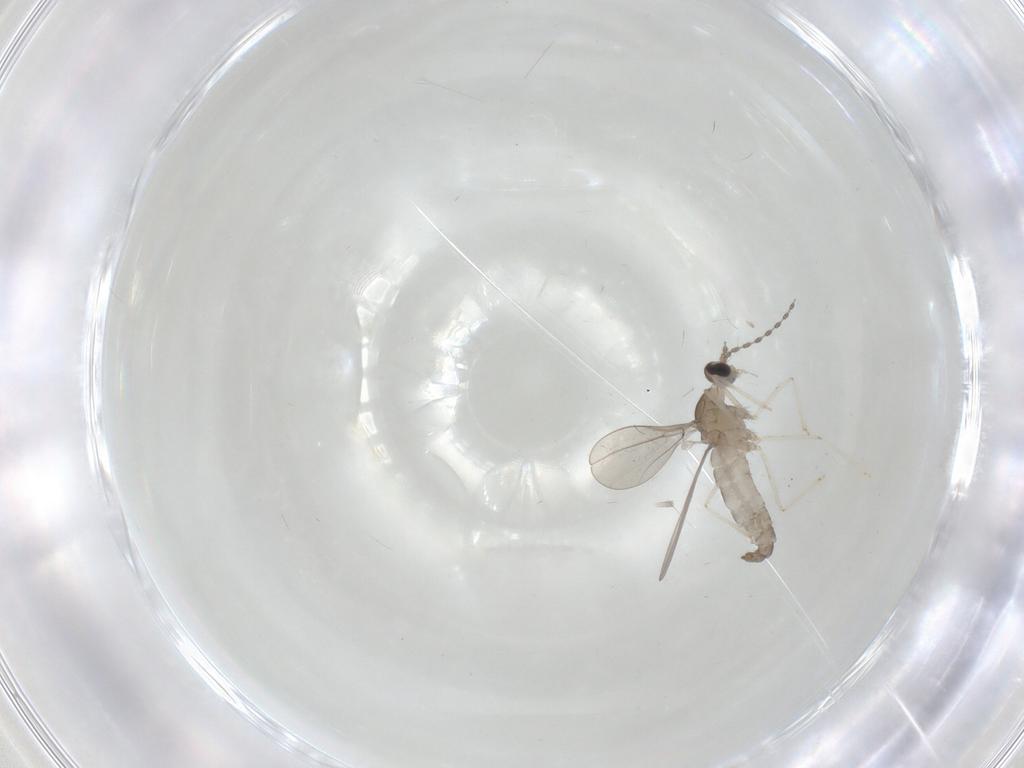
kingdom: Animalia
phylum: Arthropoda
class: Insecta
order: Diptera
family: Cecidomyiidae
